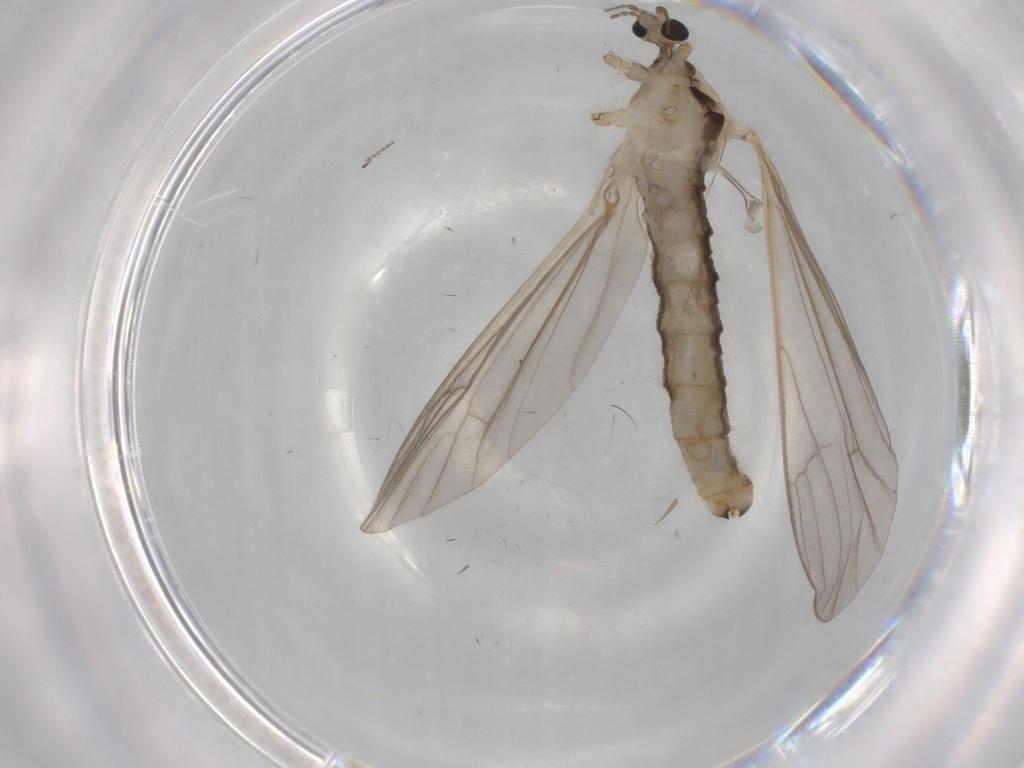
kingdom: Animalia
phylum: Arthropoda
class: Insecta
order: Diptera
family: Limoniidae
